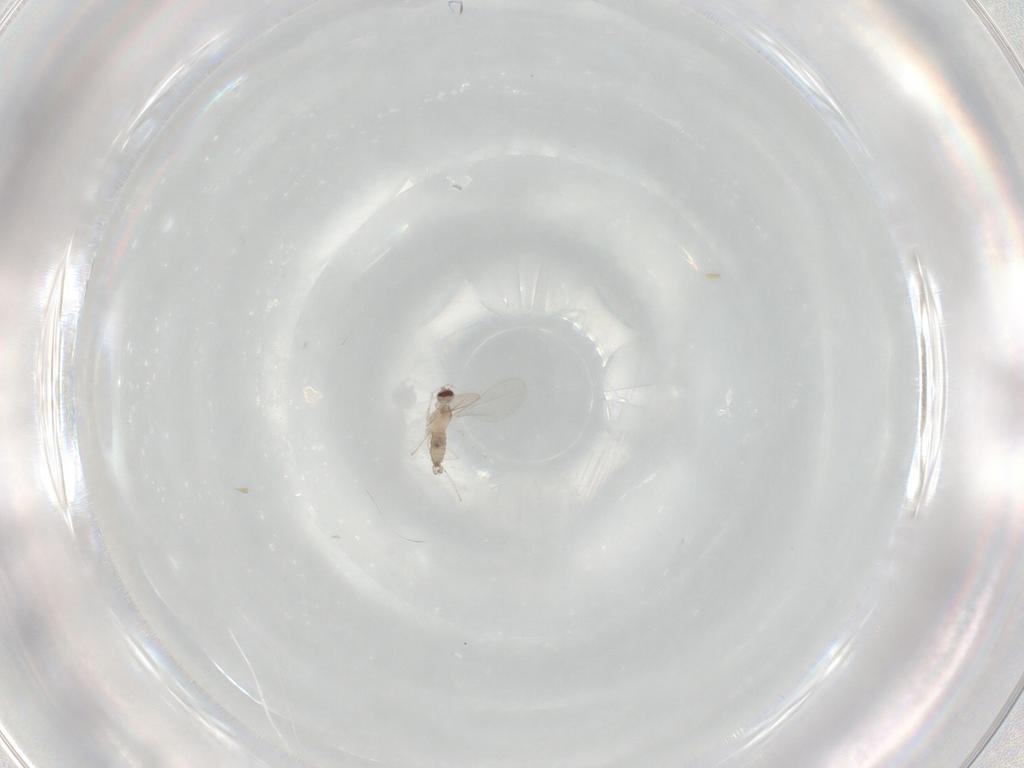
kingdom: Animalia
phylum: Arthropoda
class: Insecta
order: Diptera
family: Cecidomyiidae
